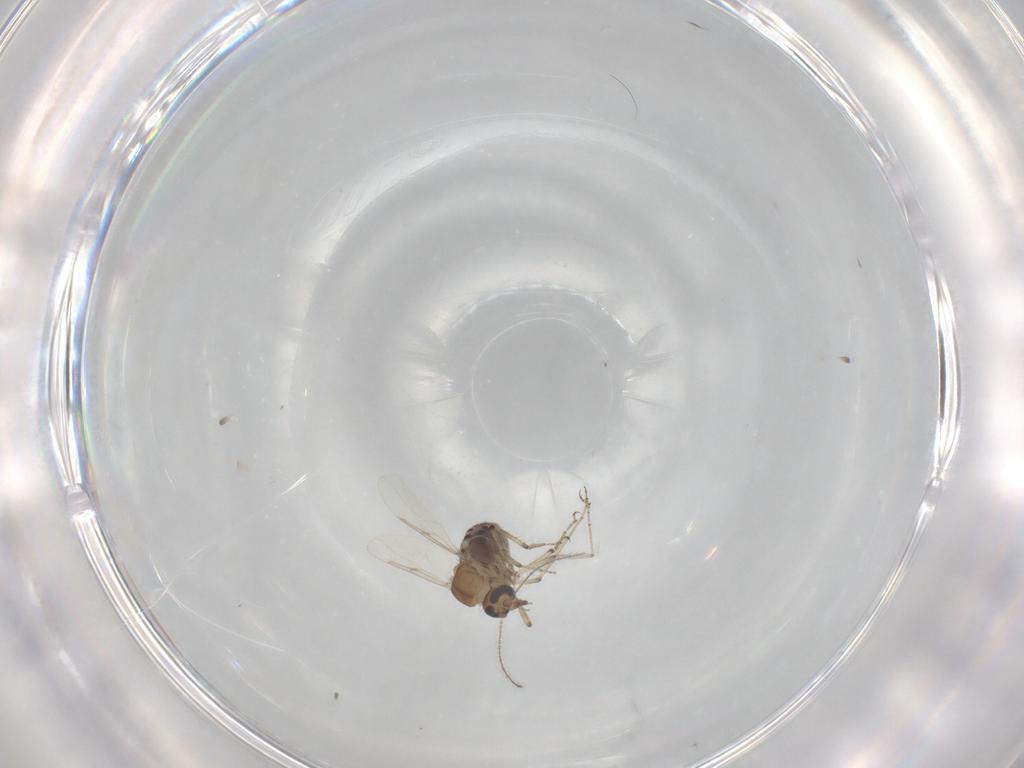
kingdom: Animalia
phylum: Arthropoda
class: Insecta
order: Diptera
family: Ceratopogonidae
